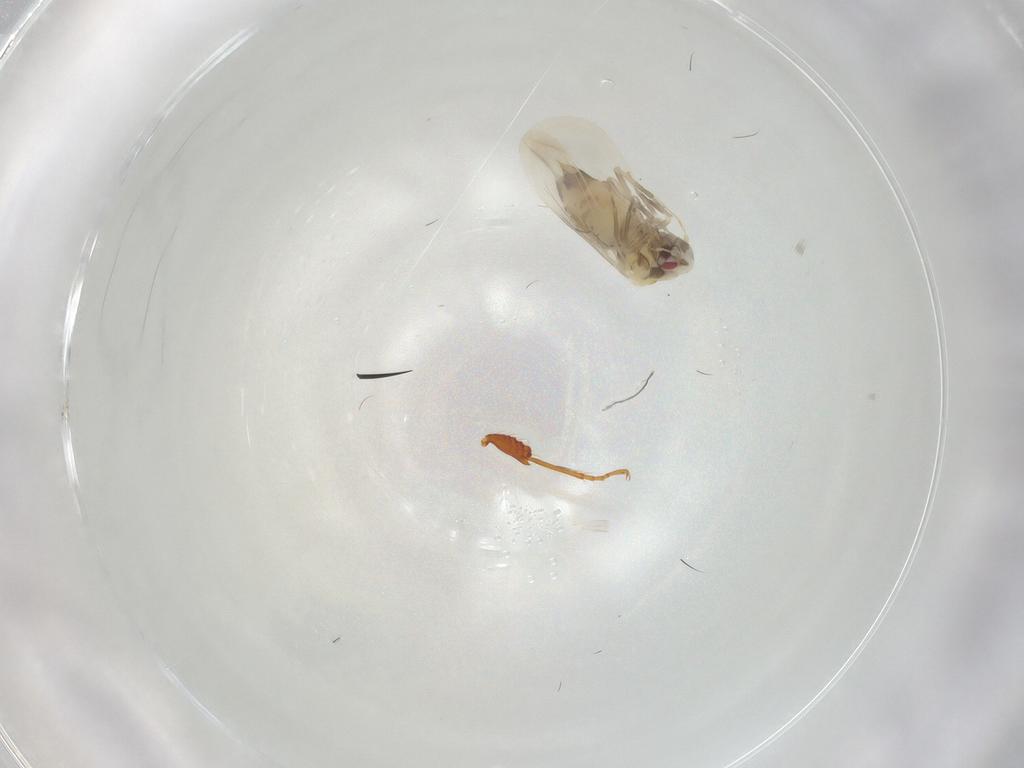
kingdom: Animalia
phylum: Arthropoda
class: Insecta
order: Hemiptera
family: Aleyrodidae
